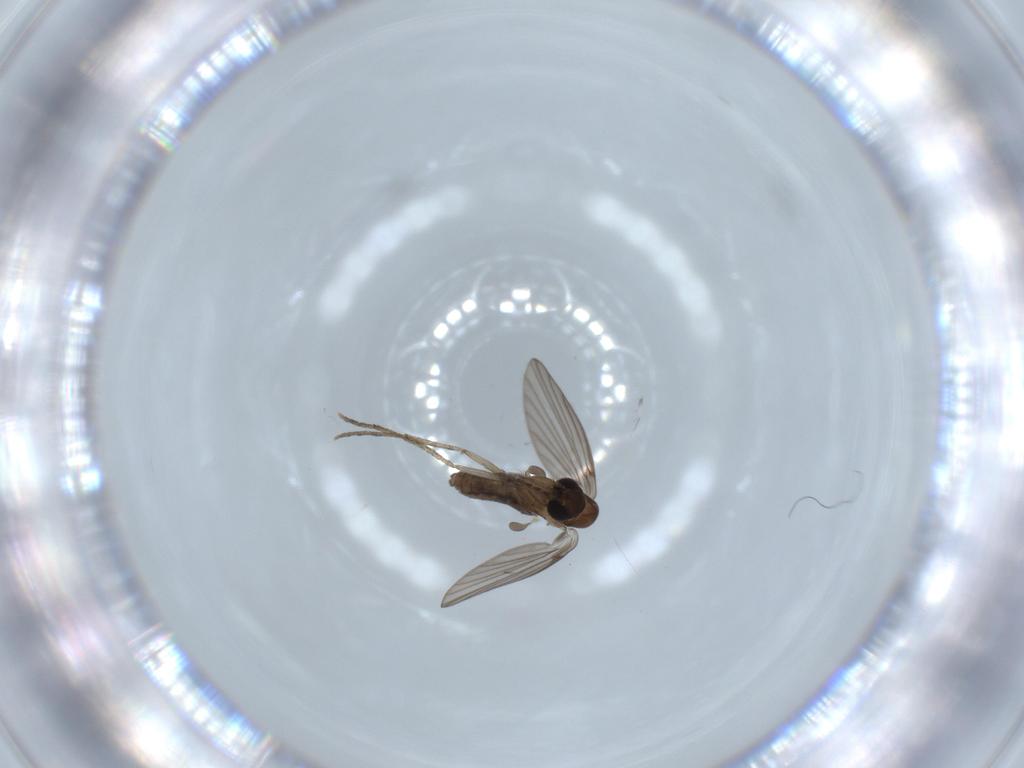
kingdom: Animalia
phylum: Arthropoda
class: Insecta
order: Diptera
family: Psychodidae
